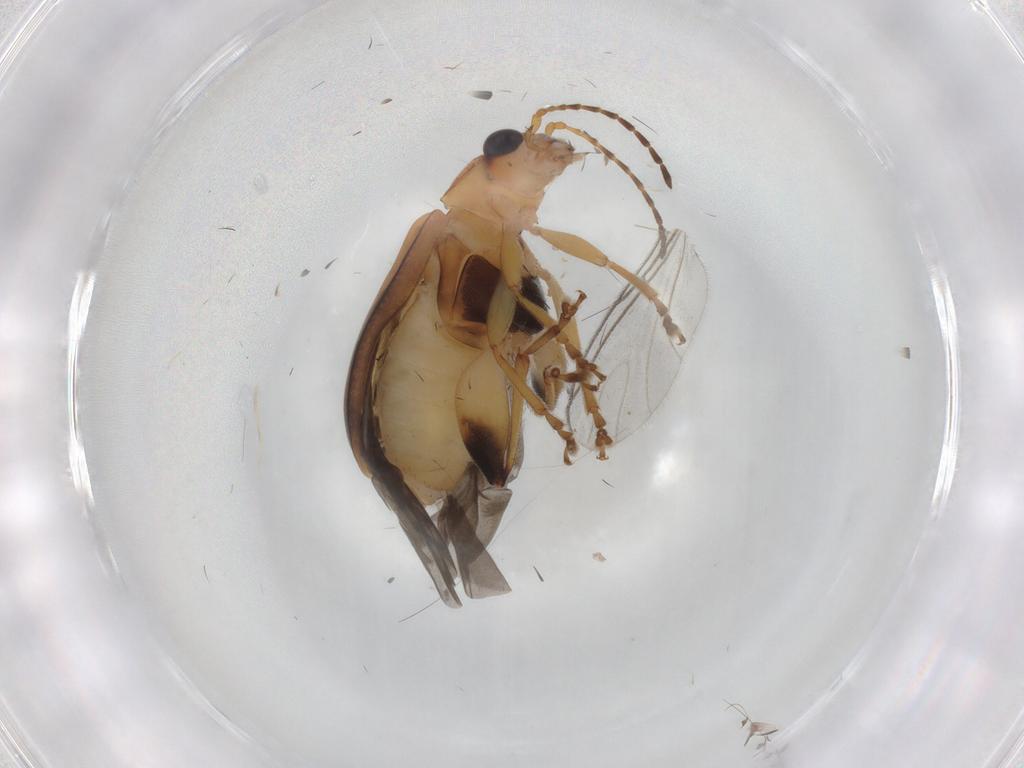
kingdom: Animalia
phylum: Arthropoda
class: Insecta
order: Coleoptera
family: Chrysomelidae
